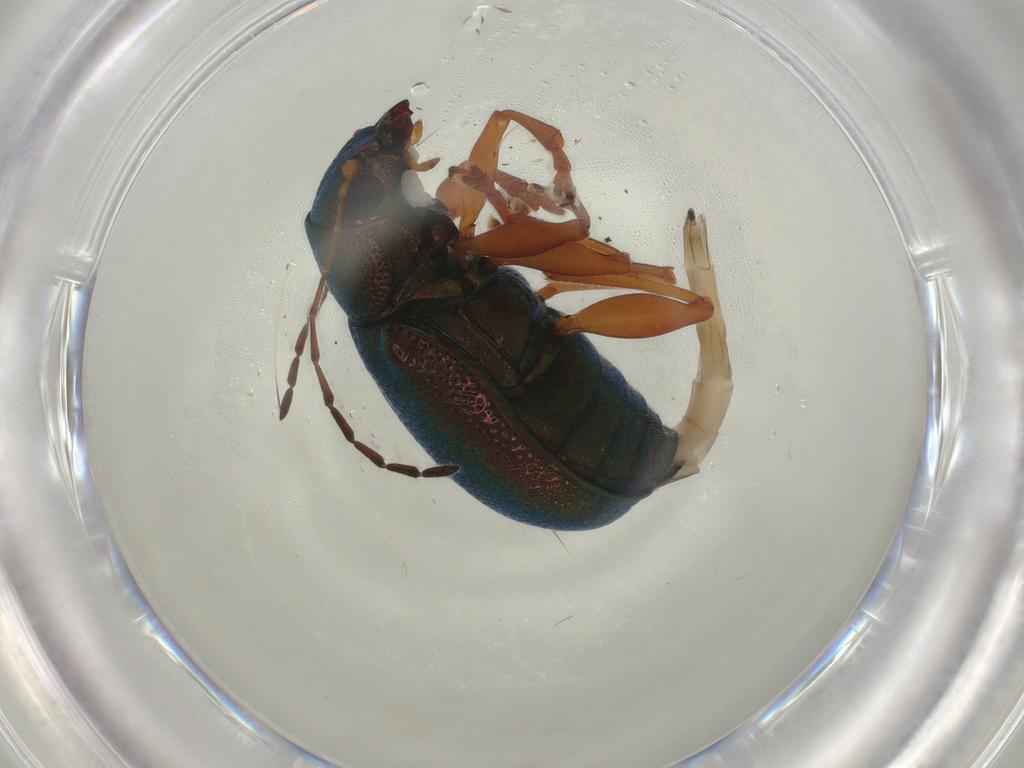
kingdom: Animalia
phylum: Arthropoda
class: Insecta
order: Coleoptera
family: Chrysomelidae
